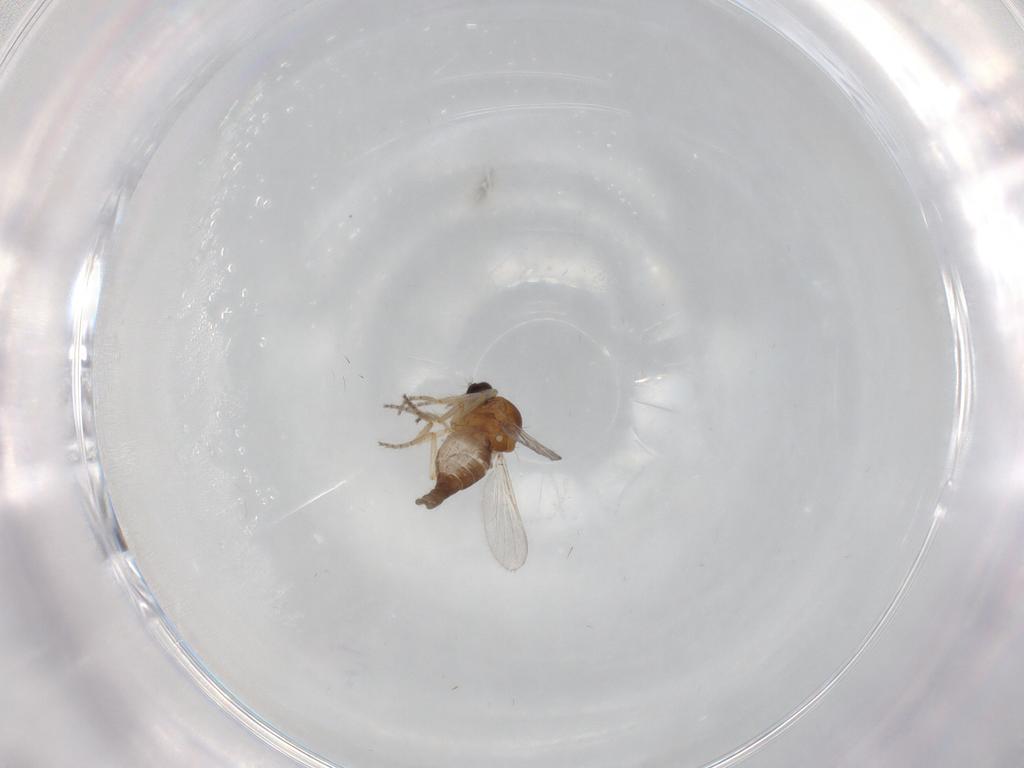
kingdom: Animalia
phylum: Arthropoda
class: Insecta
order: Diptera
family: Ceratopogonidae
